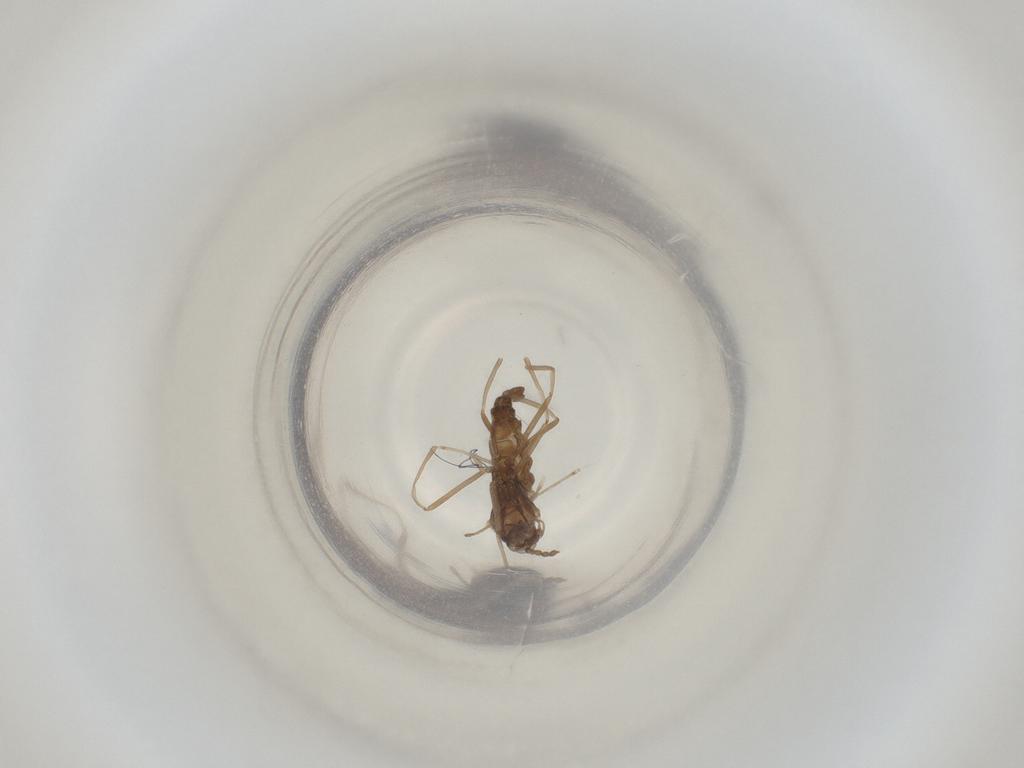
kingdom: Animalia
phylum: Arthropoda
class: Insecta
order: Diptera
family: Cecidomyiidae
